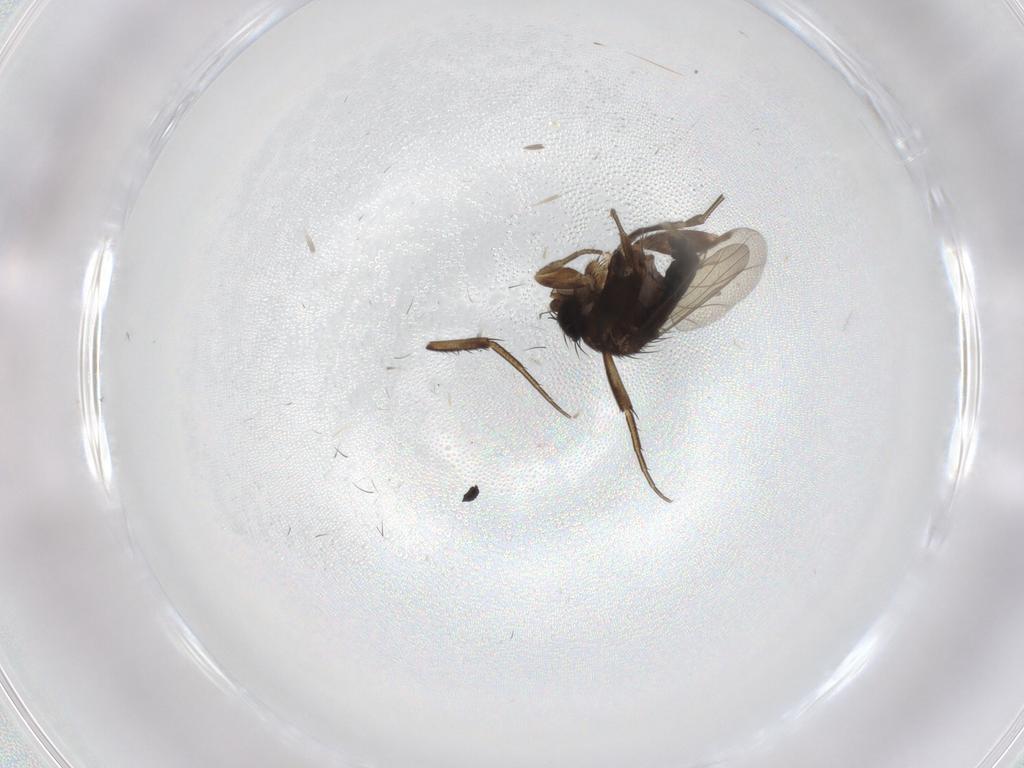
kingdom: Animalia
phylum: Arthropoda
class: Insecta
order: Diptera
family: Phoridae
